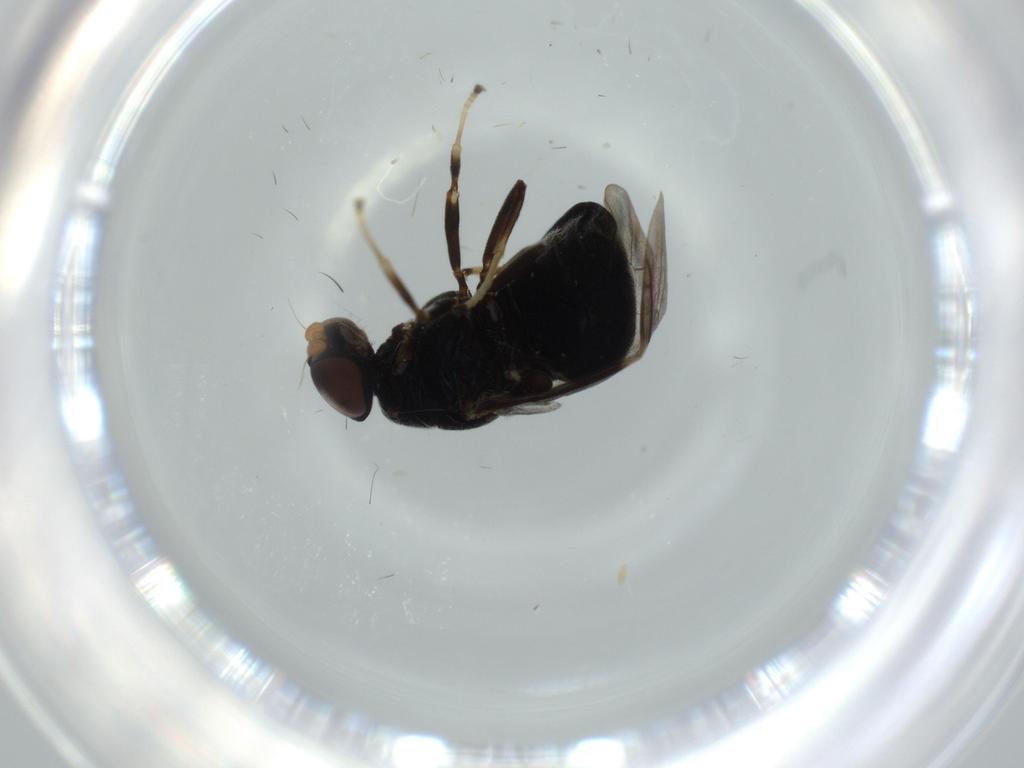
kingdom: Animalia
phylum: Arthropoda
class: Insecta
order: Diptera
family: Stratiomyidae
